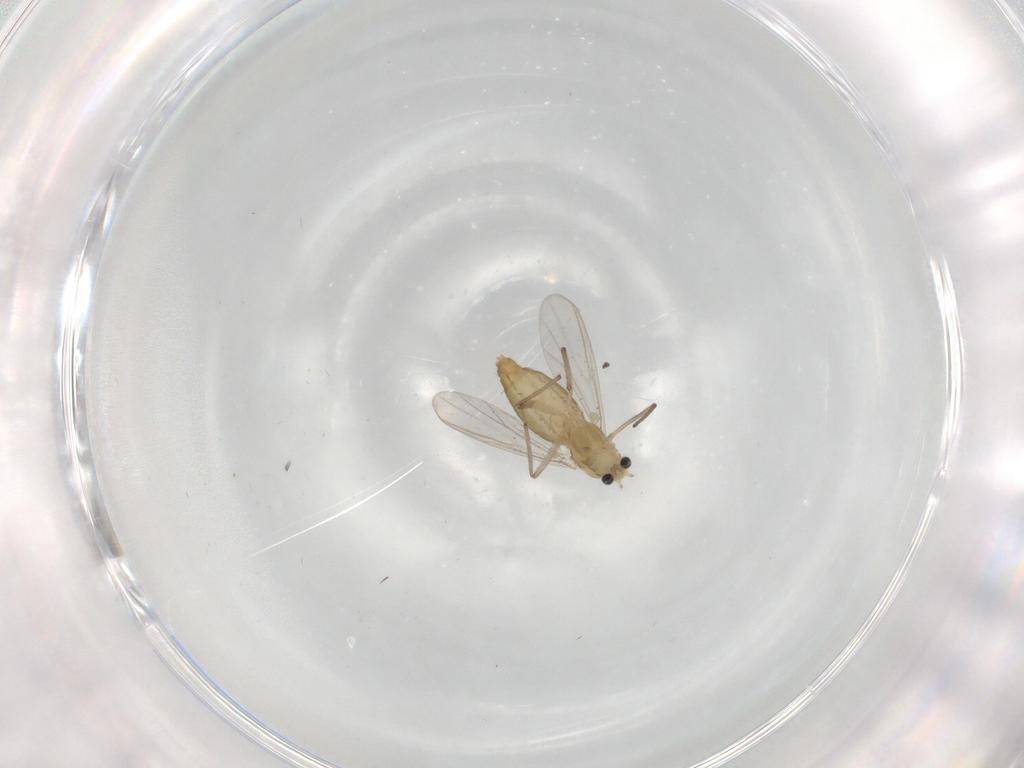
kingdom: Animalia
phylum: Arthropoda
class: Insecta
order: Diptera
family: Chironomidae
